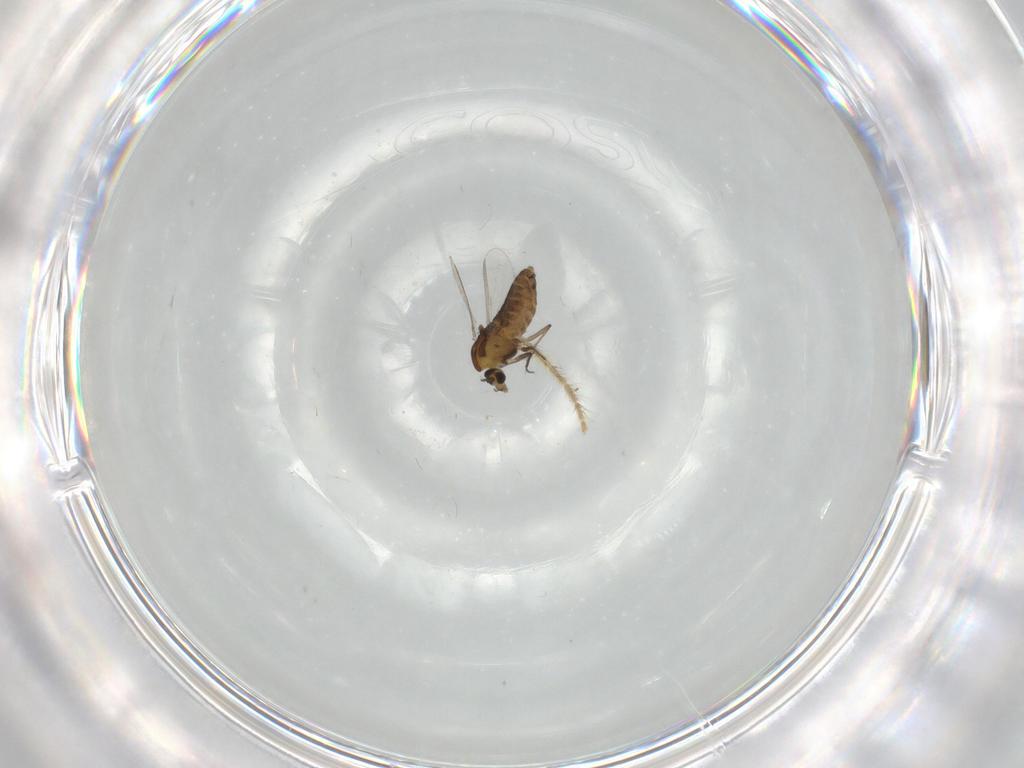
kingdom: Animalia
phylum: Arthropoda
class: Insecta
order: Diptera
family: Chironomidae
